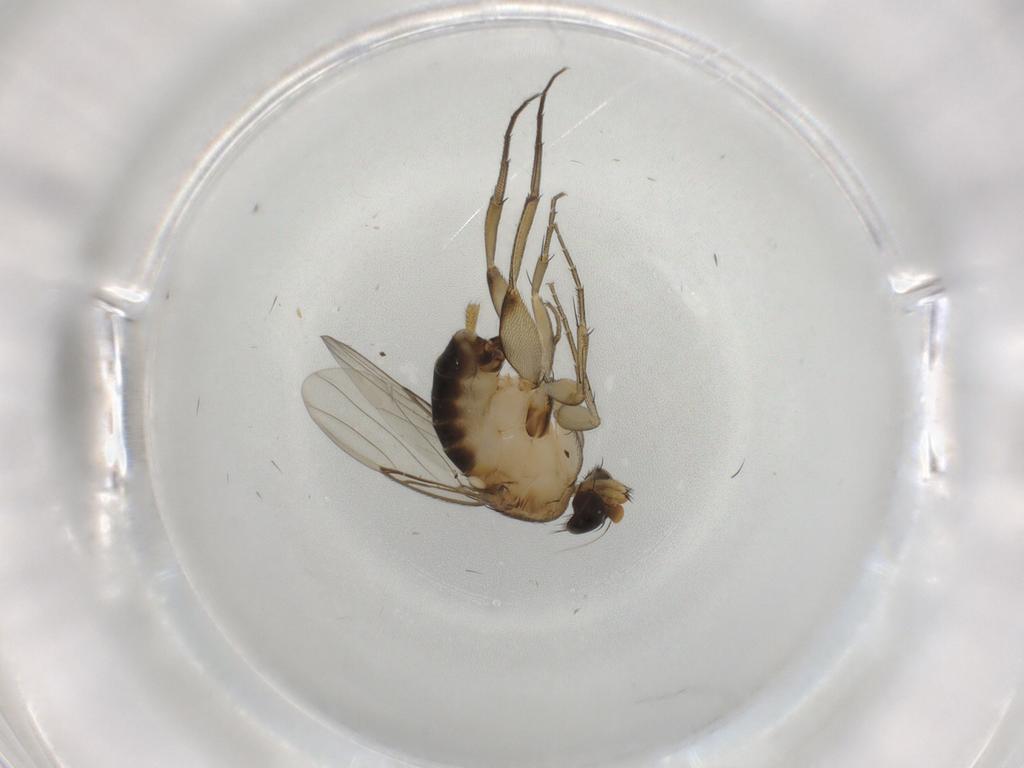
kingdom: Animalia
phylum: Arthropoda
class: Insecta
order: Diptera
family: Phoridae
